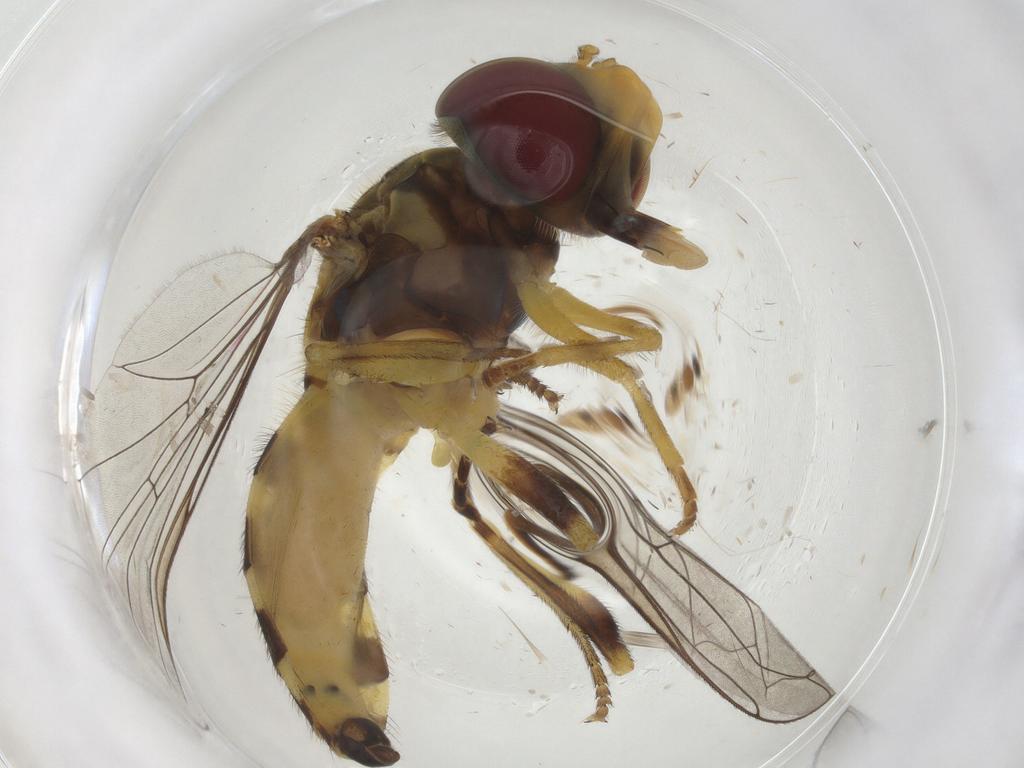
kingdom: Animalia
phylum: Arthropoda
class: Insecta
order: Diptera
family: Syrphidae
